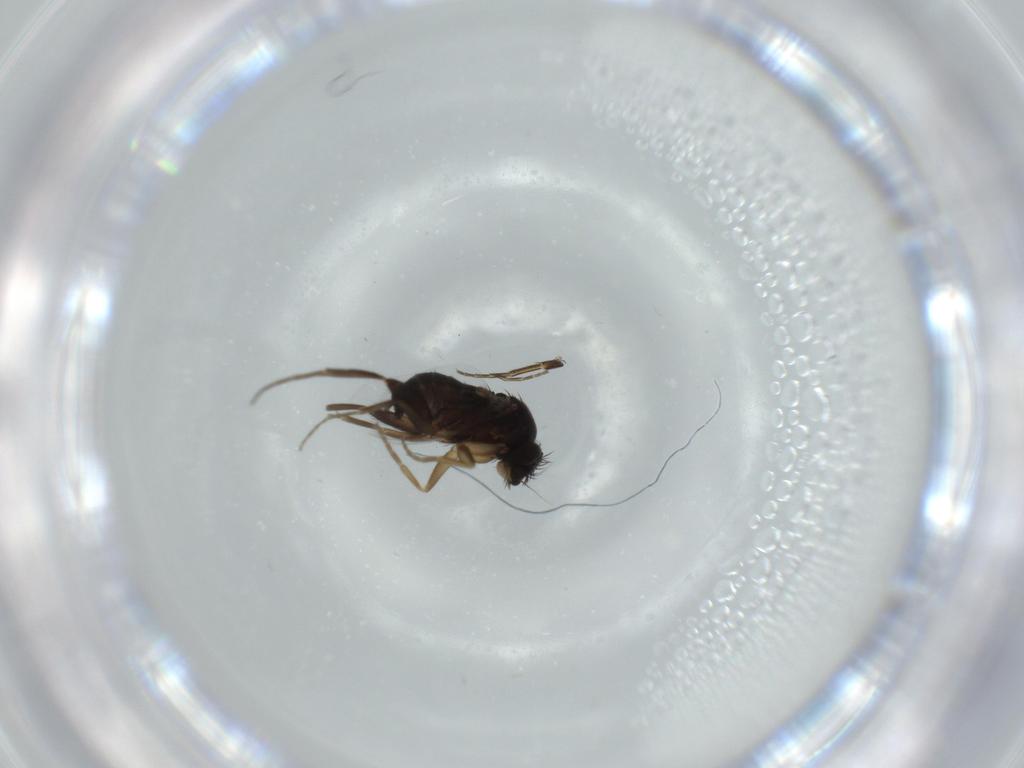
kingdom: Animalia
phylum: Arthropoda
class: Insecta
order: Diptera
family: Phoridae
